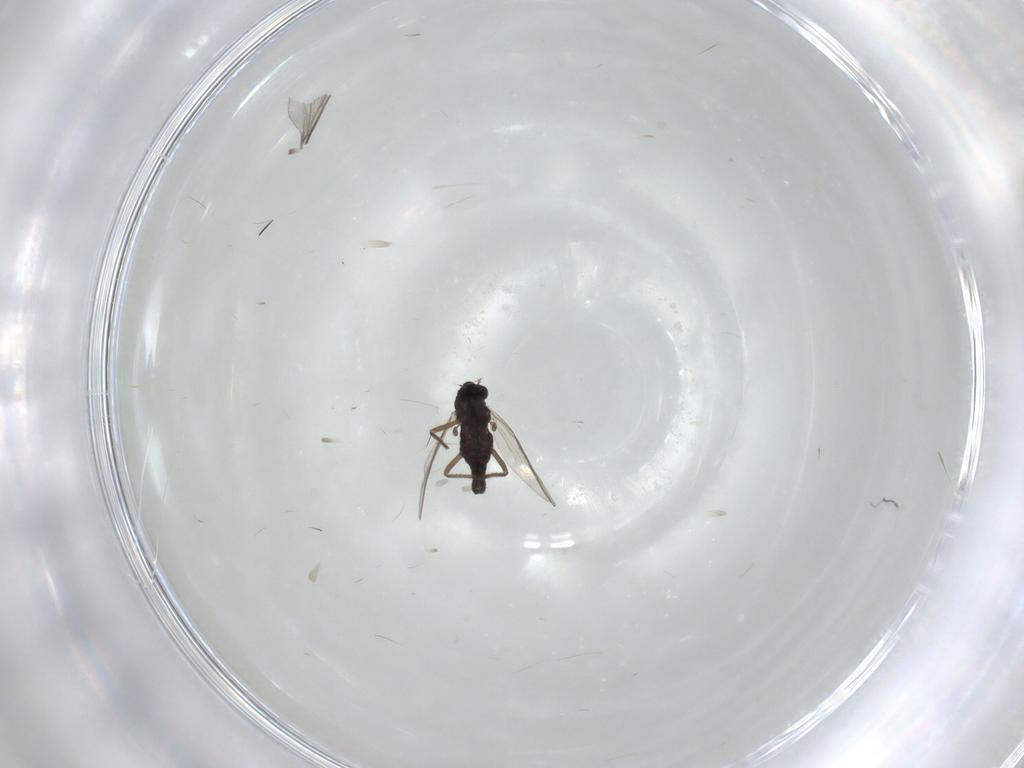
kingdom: Animalia
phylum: Arthropoda
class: Insecta
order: Diptera
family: Chironomidae
